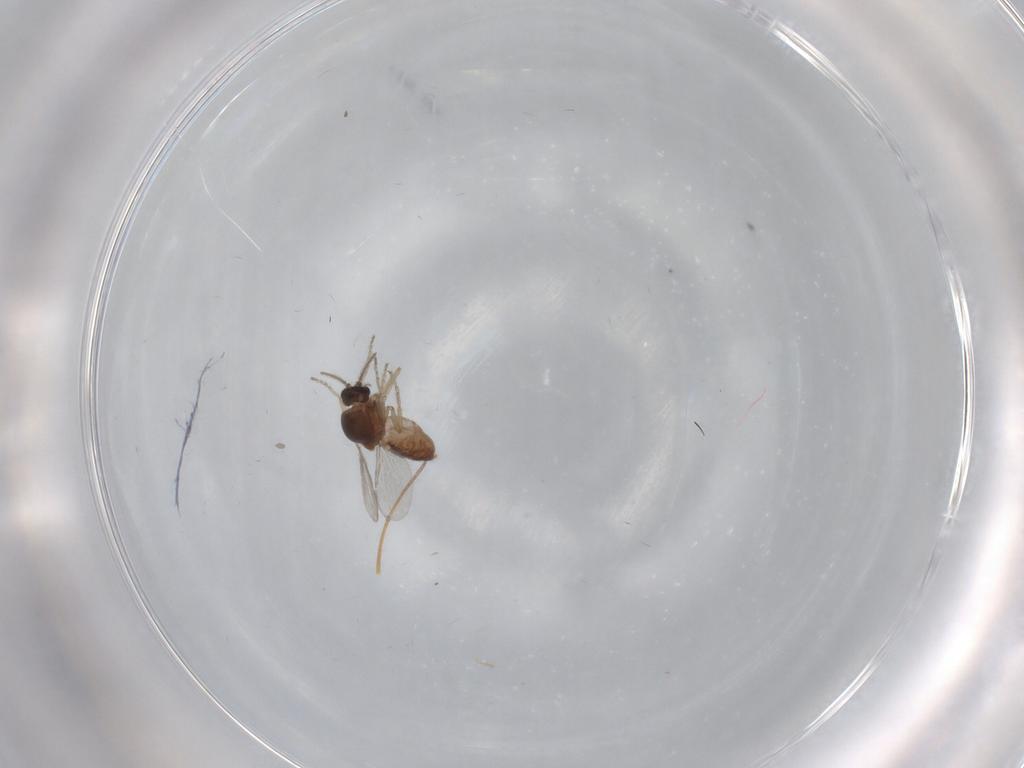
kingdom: Animalia
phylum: Arthropoda
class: Insecta
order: Diptera
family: Ceratopogonidae
